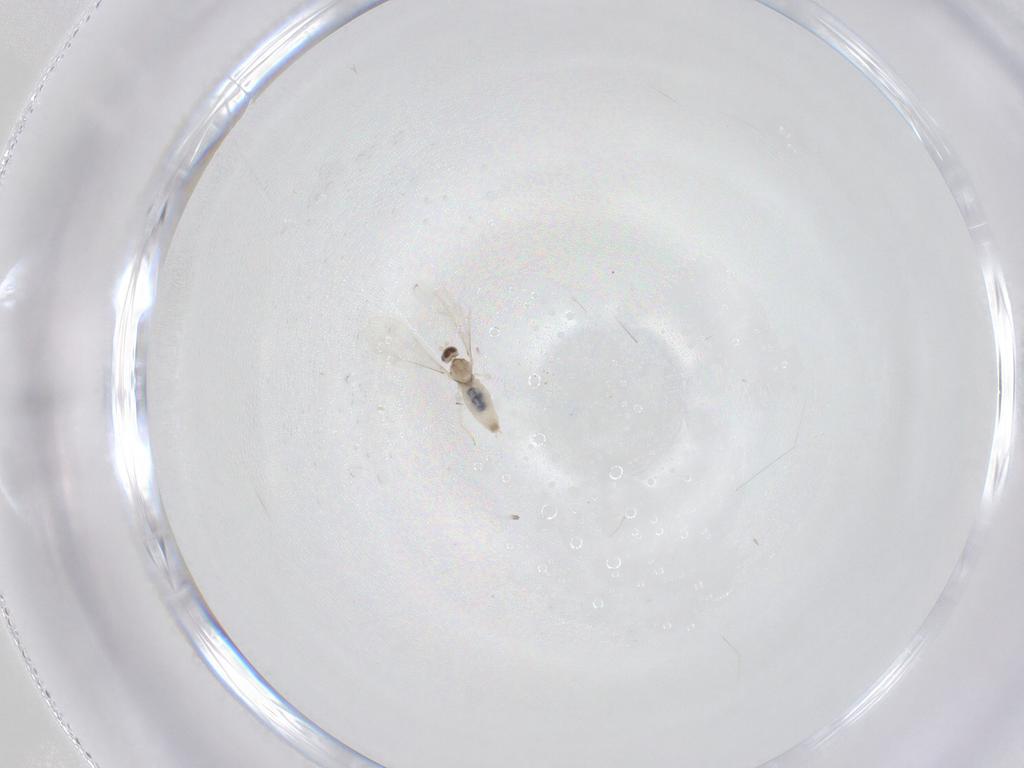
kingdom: Animalia
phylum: Arthropoda
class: Insecta
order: Diptera
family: Cecidomyiidae
